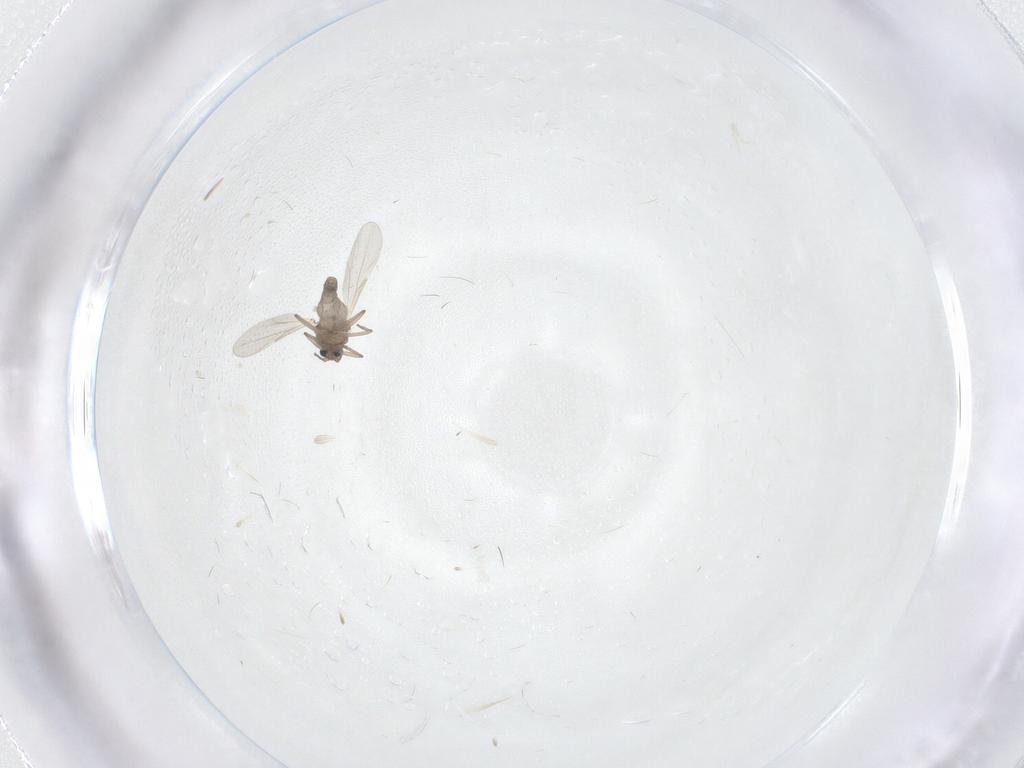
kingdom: Animalia
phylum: Arthropoda
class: Insecta
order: Diptera
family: Cecidomyiidae
